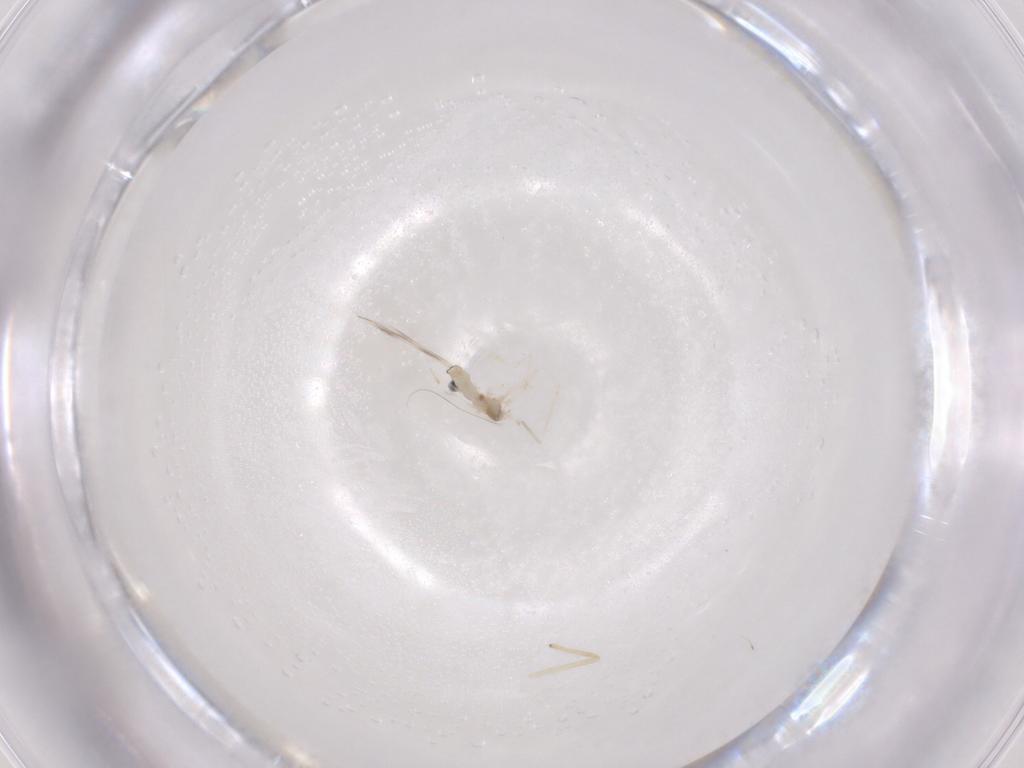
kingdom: Animalia
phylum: Arthropoda
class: Insecta
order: Diptera
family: Cecidomyiidae
